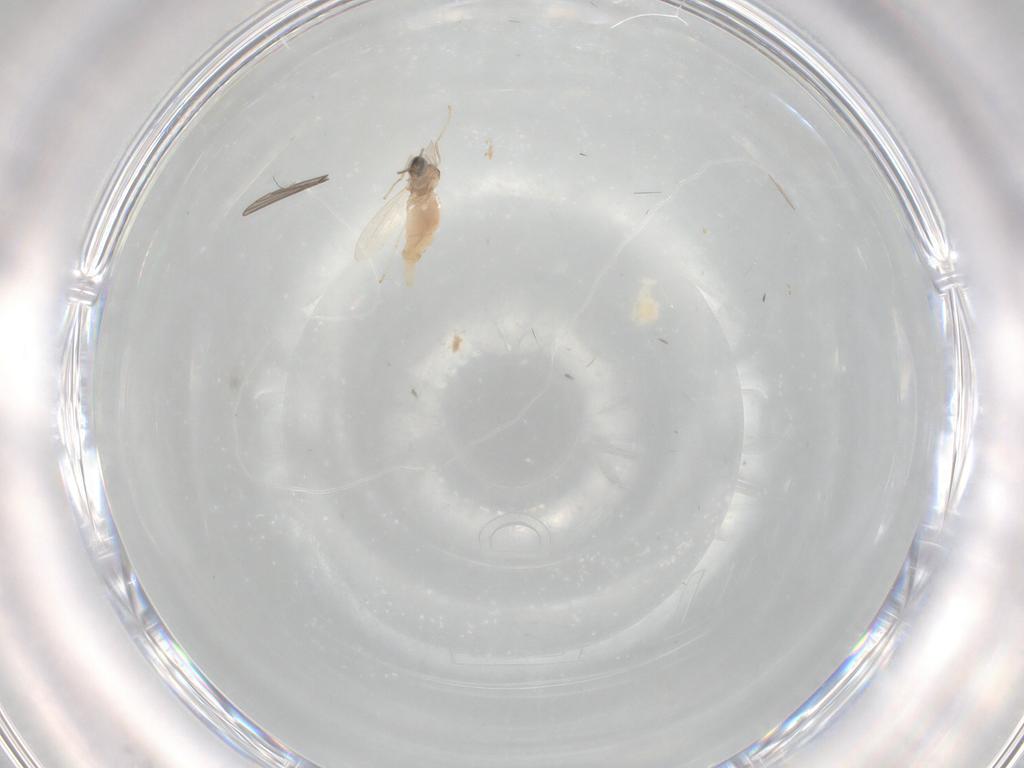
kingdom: Animalia
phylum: Arthropoda
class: Insecta
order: Diptera
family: Cecidomyiidae
